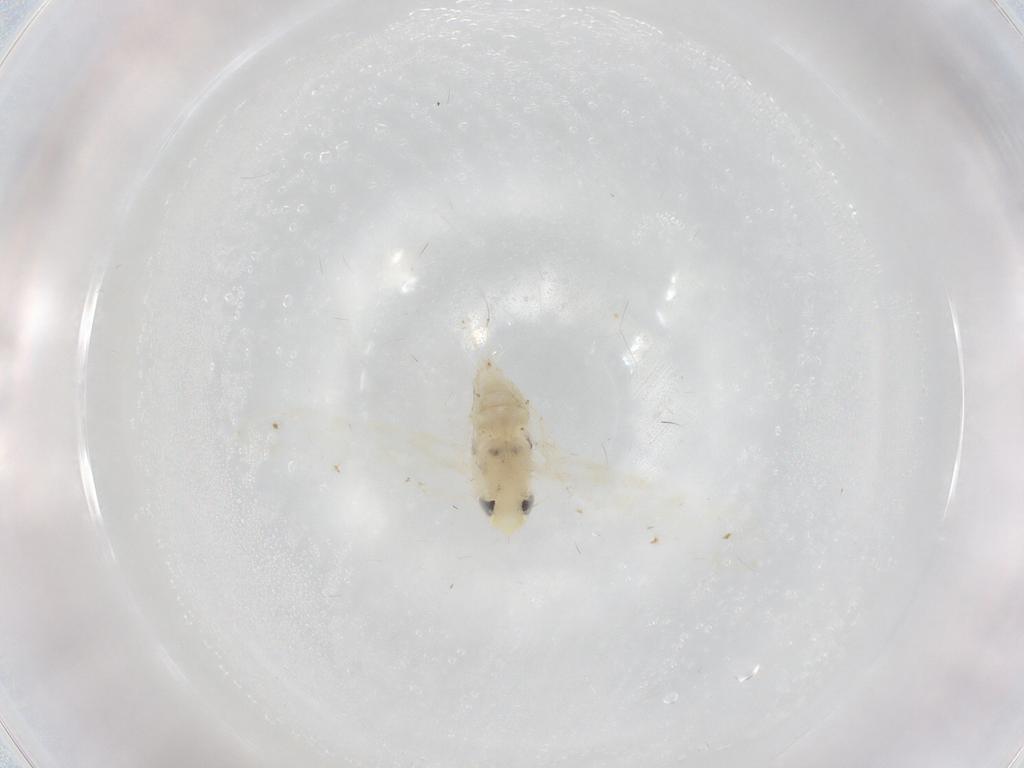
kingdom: Animalia
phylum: Arthropoda
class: Insecta
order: Hemiptera
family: Cicadellidae
